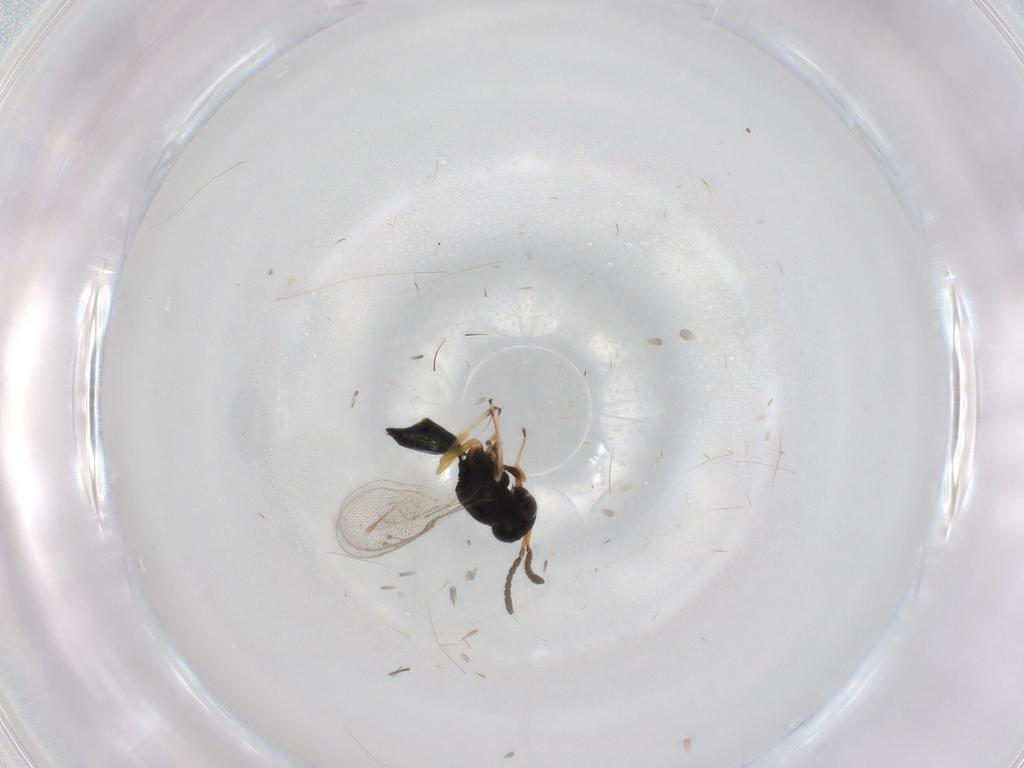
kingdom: Animalia
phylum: Arthropoda
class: Insecta
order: Hymenoptera
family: Pteromalidae
